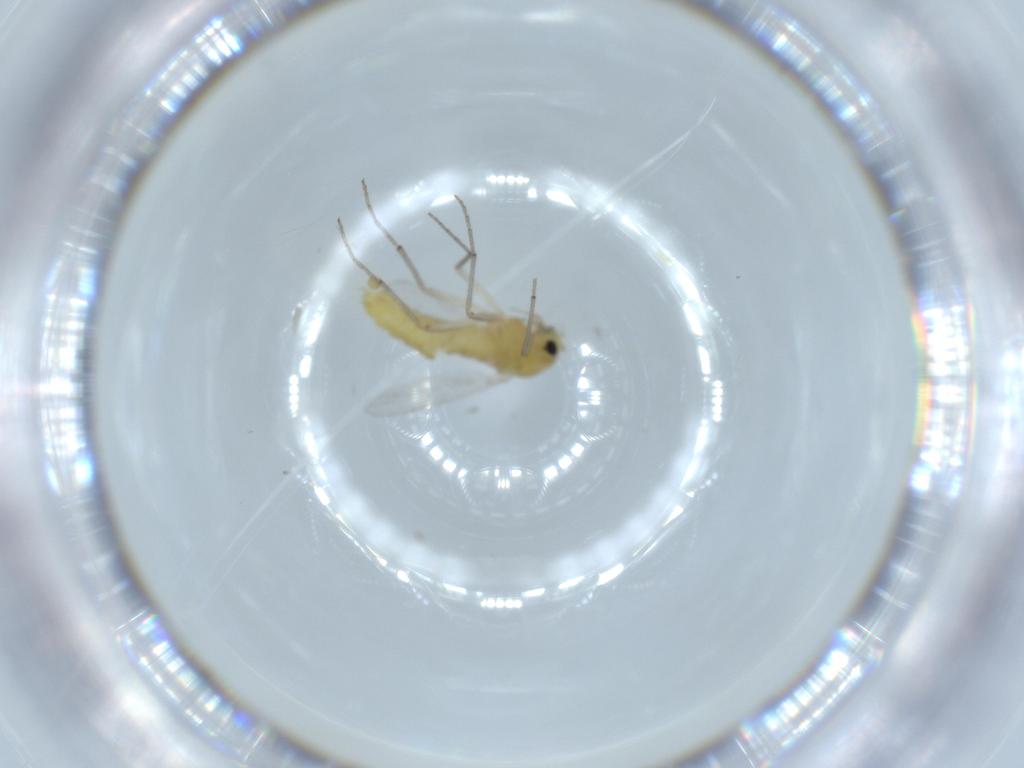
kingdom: Animalia
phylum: Arthropoda
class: Insecta
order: Diptera
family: Chironomidae
